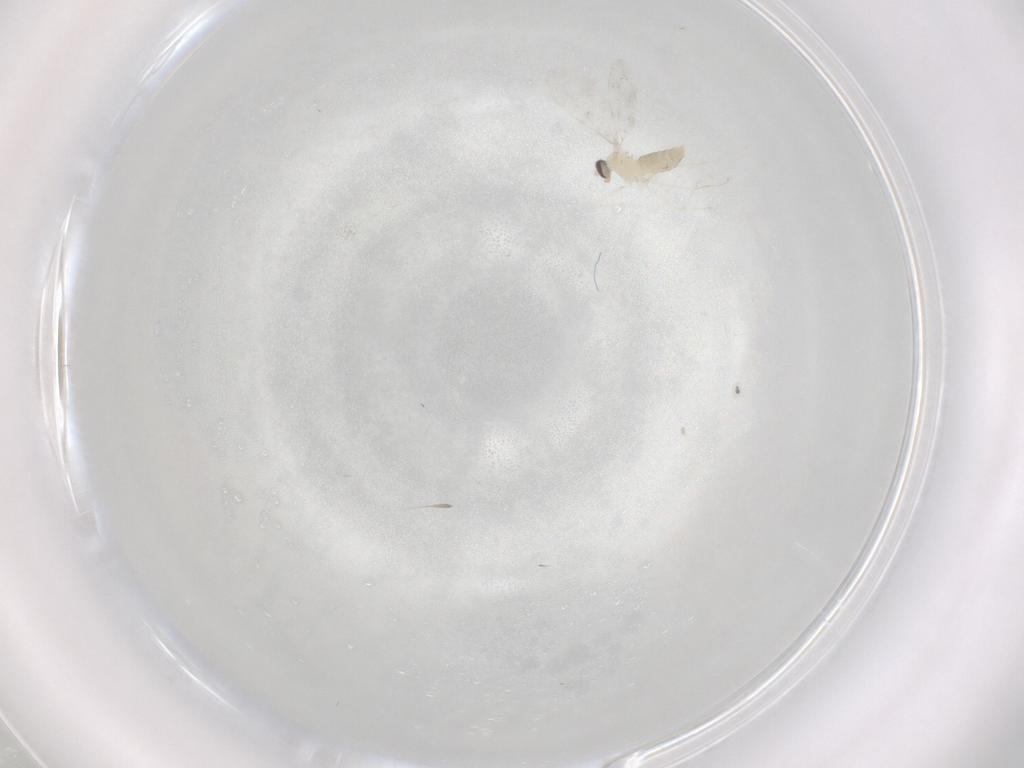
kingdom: Animalia
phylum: Arthropoda
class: Insecta
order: Diptera
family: Cecidomyiidae
